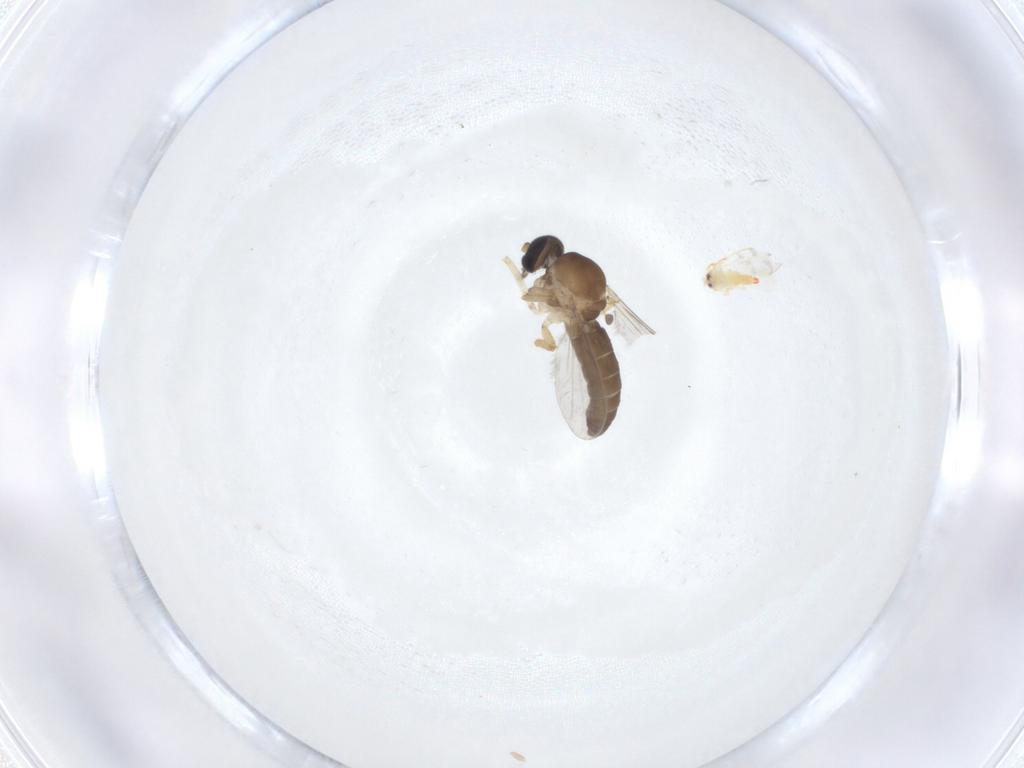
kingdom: Animalia
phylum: Arthropoda
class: Insecta
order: Diptera
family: Ceratopogonidae
